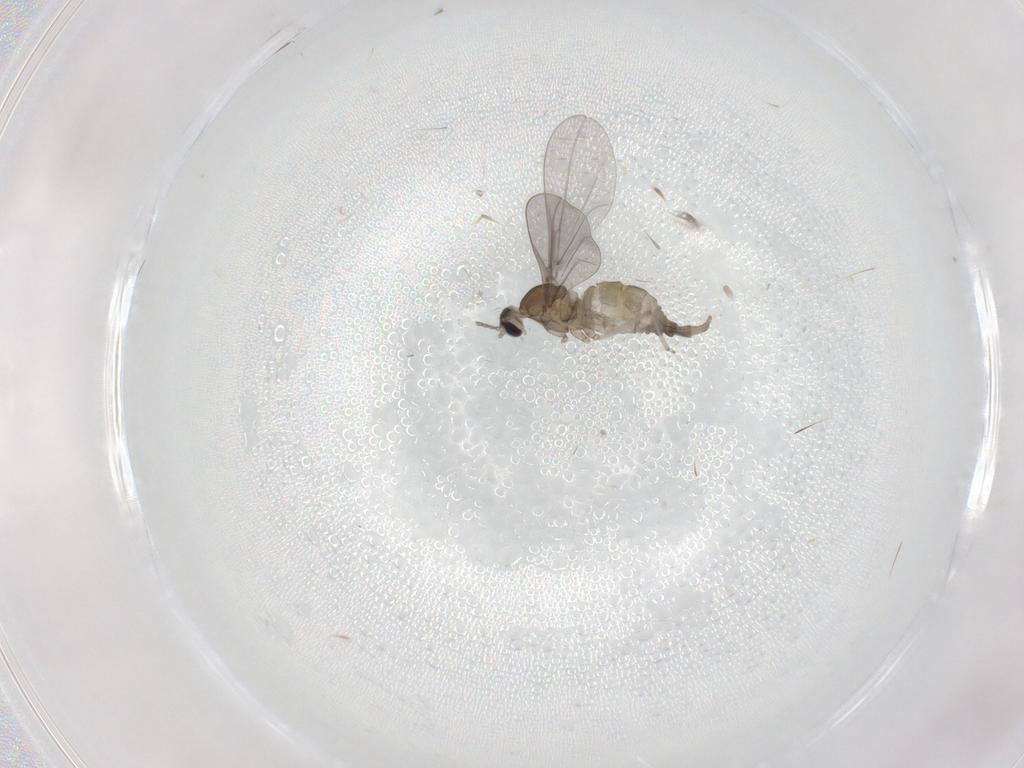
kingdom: Animalia
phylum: Arthropoda
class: Insecta
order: Diptera
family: Cecidomyiidae
